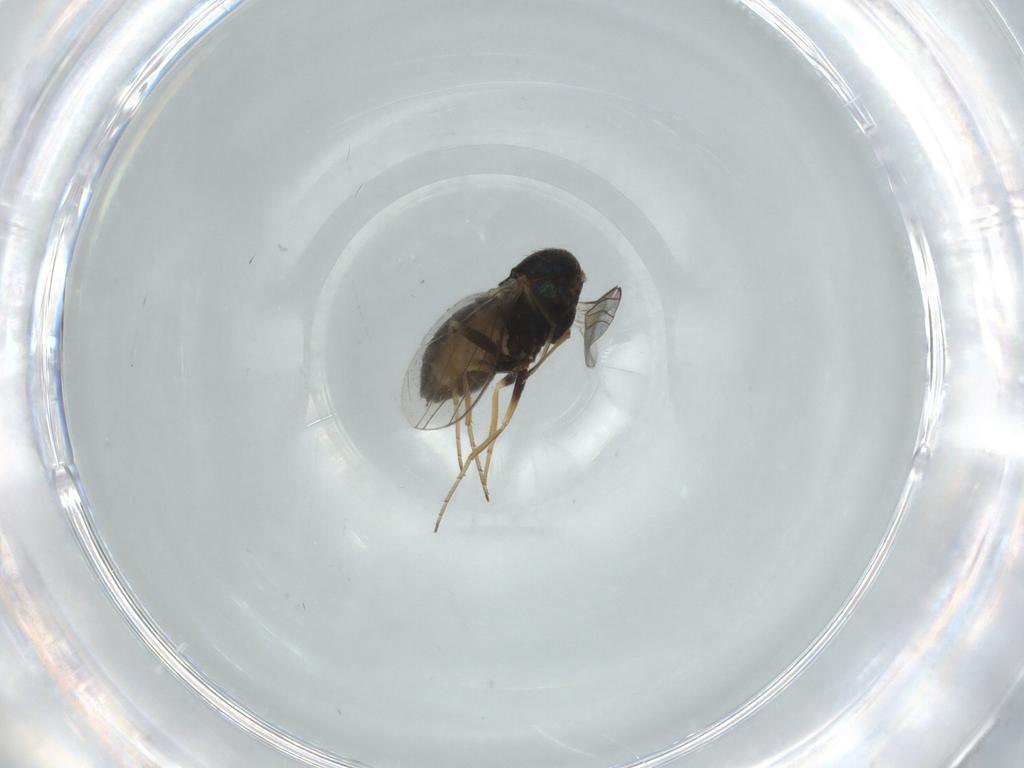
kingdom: Animalia
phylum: Arthropoda
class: Insecta
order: Diptera
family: Dolichopodidae
